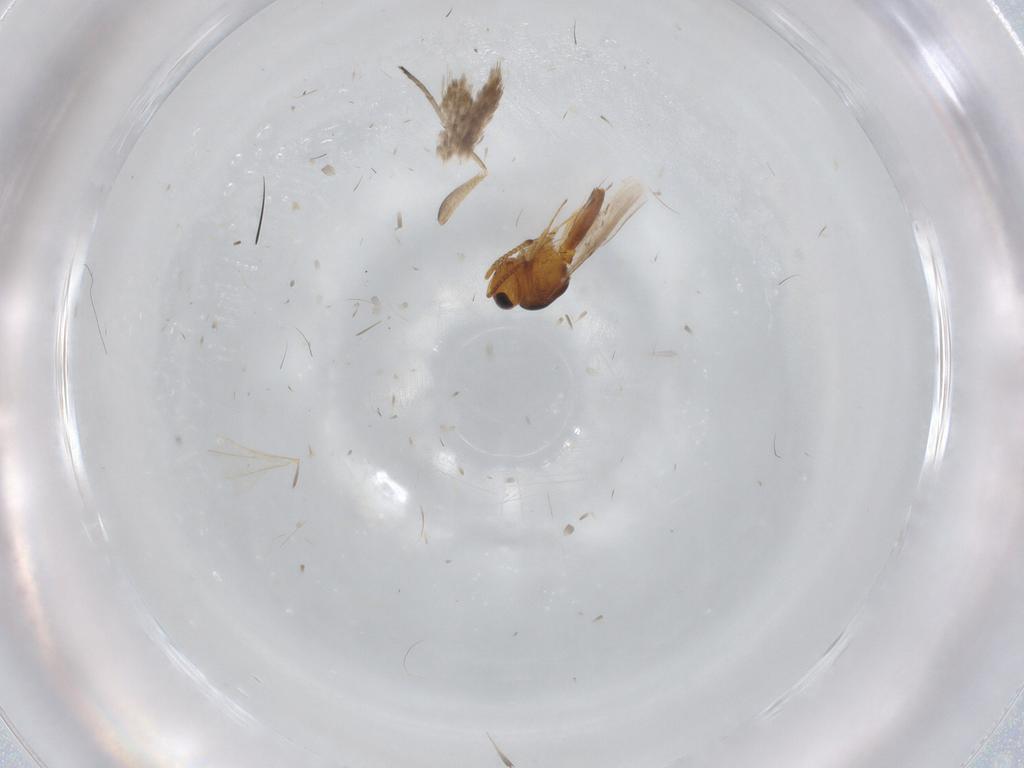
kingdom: Animalia
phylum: Arthropoda
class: Insecta
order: Hymenoptera
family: Scelionidae
